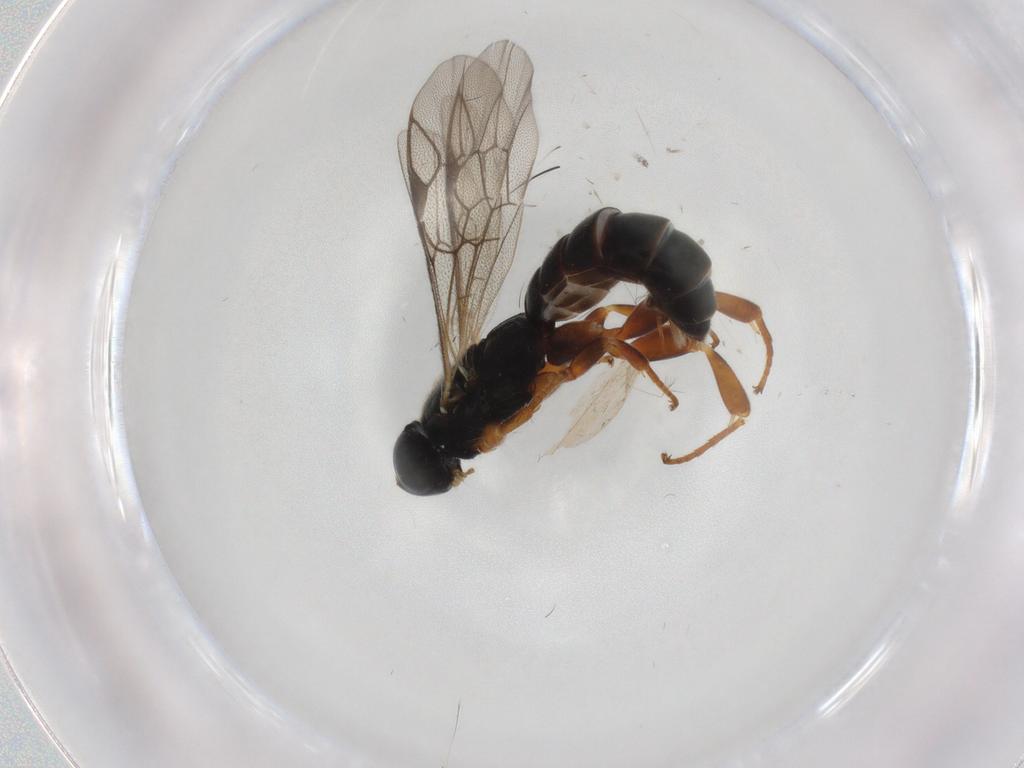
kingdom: Animalia
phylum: Arthropoda
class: Insecta
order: Hymenoptera
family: Ichneumonidae
